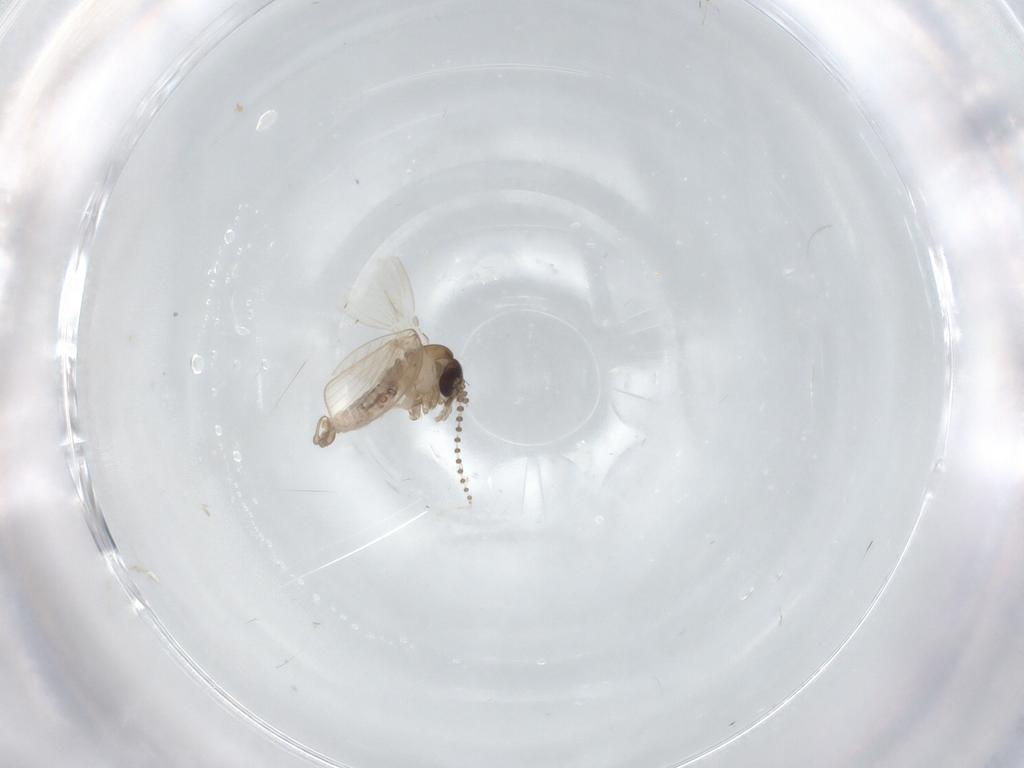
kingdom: Animalia
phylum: Arthropoda
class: Insecta
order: Diptera
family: Psychodidae
